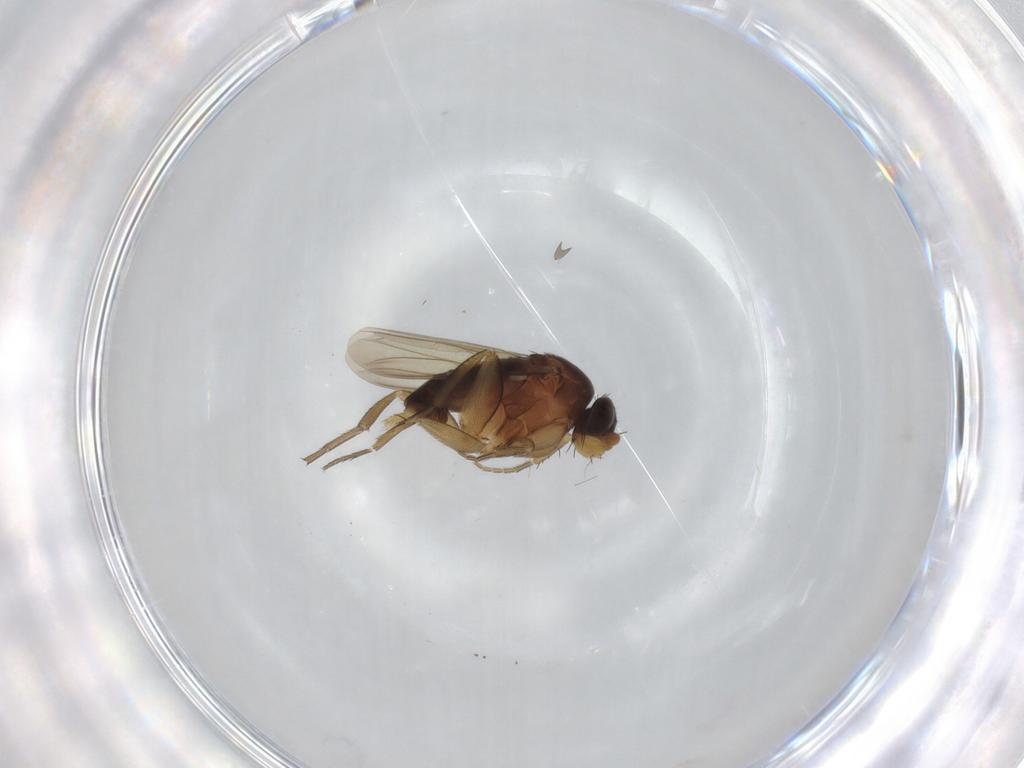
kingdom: Animalia
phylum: Arthropoda
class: Insecta
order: Diptera
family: Phoridae
